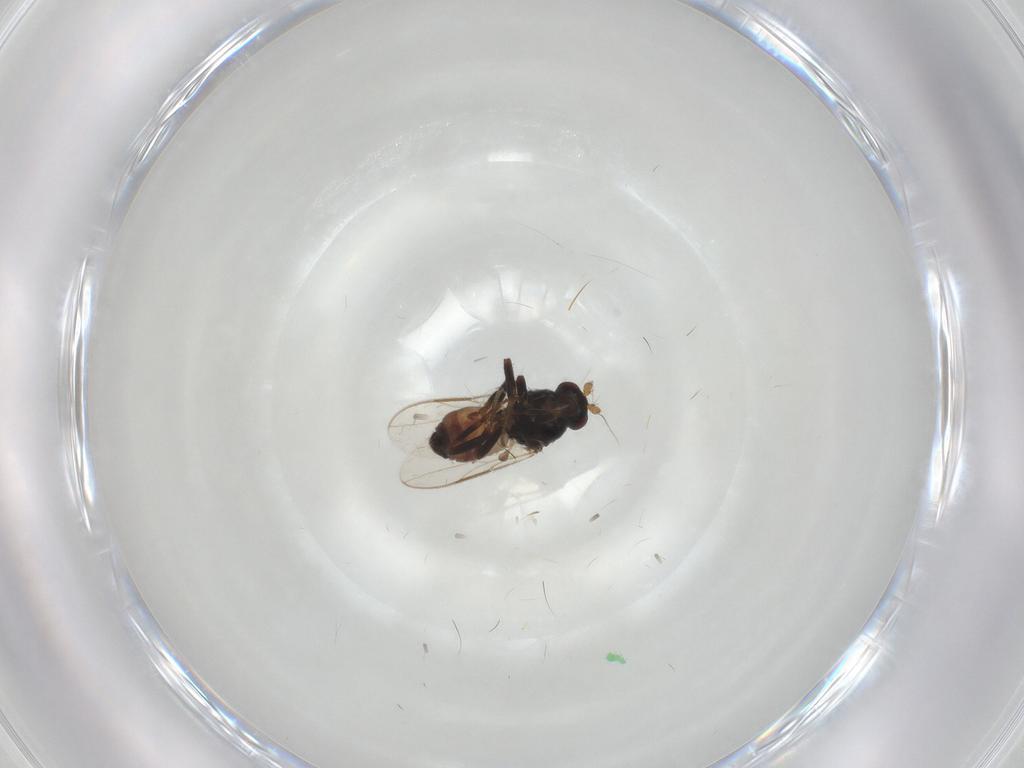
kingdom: Animalia
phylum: Arthropoda
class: Insecta
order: Diptera
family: Sphaeroceridae
